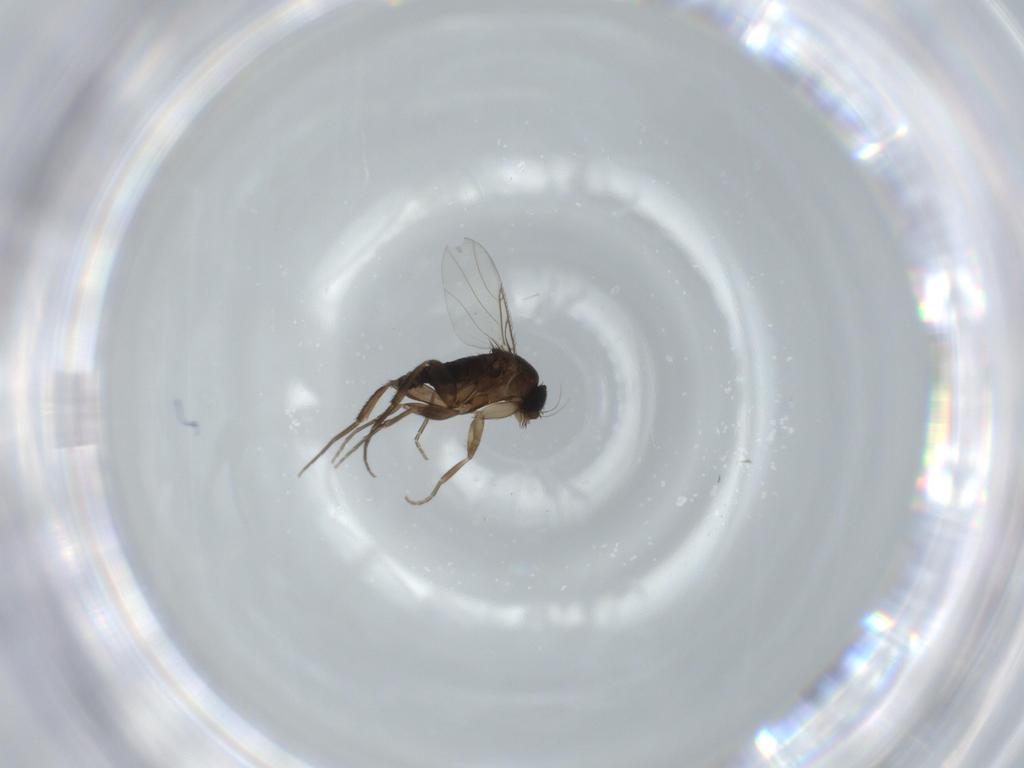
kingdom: Animalia
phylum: Arthropoda
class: Insecta
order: Diptera
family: Phoridae
